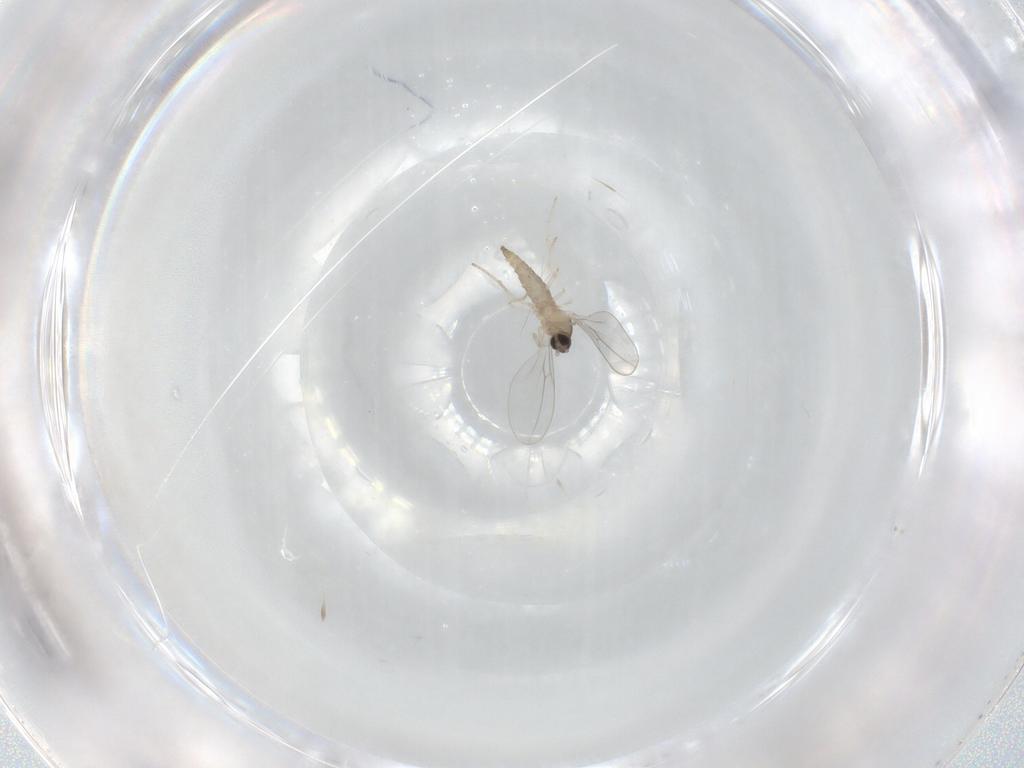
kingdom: Animalia
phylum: Arthropoda
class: Insecta
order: Diptera
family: Cecidomyiidae
